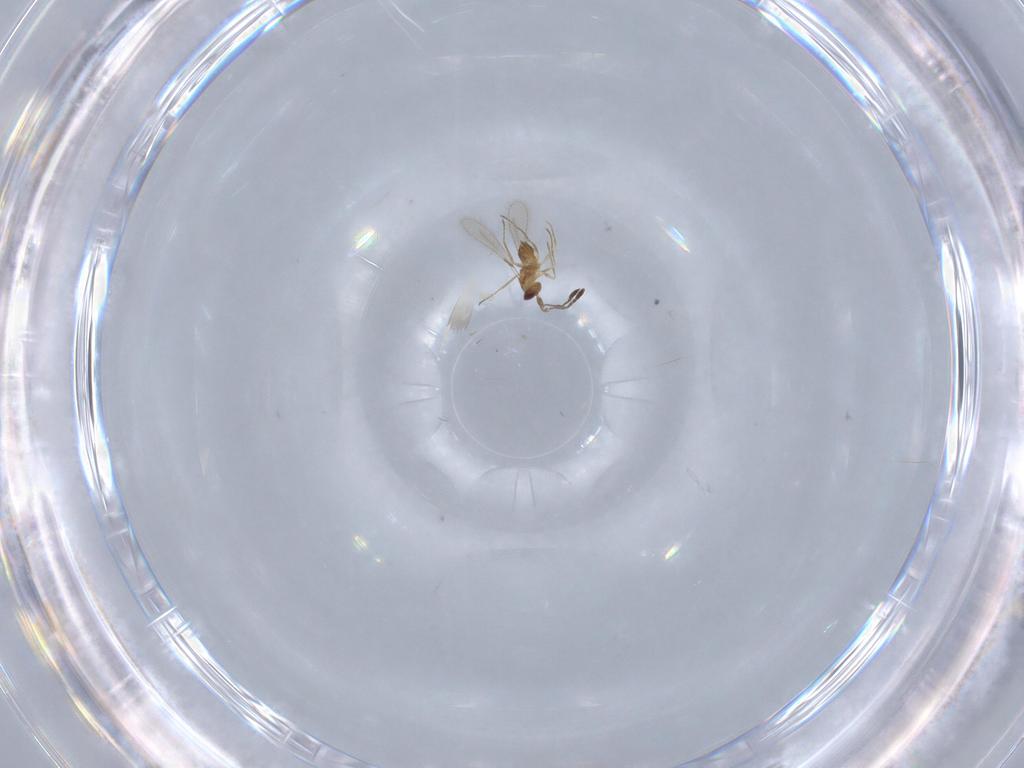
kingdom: Animalia
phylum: Arthropoda
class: Insecta
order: Hymenoptera
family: Mymaridae
